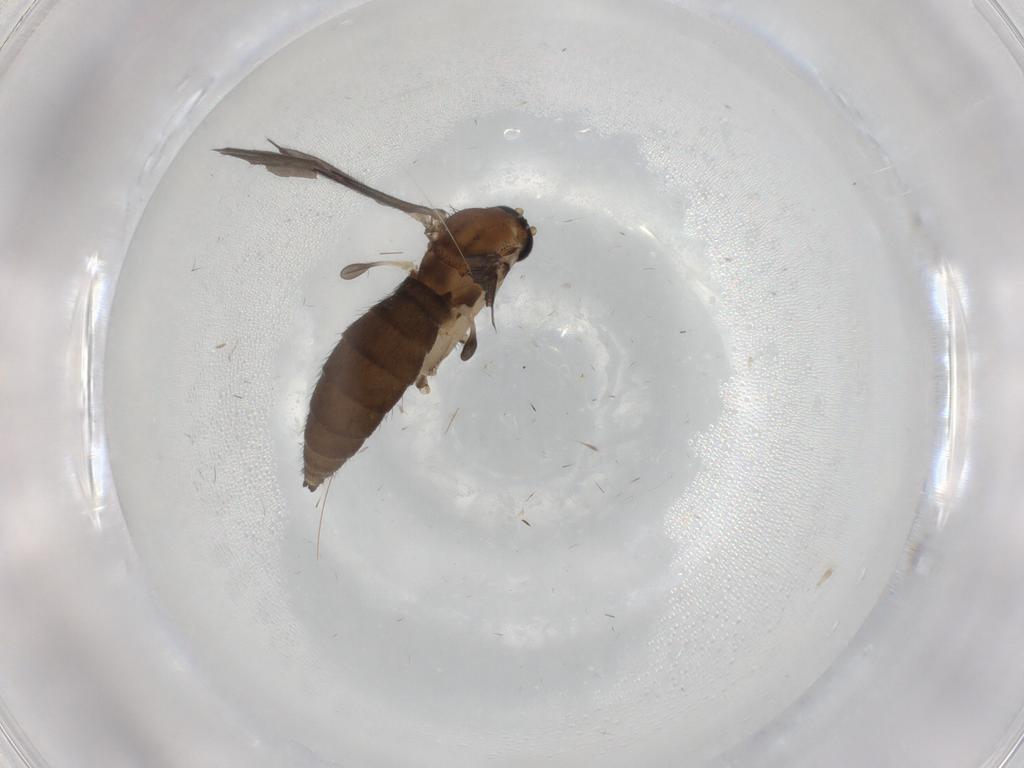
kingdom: Animalia
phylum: Arthropoda
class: Insecta
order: Diptera
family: Sciaridae
